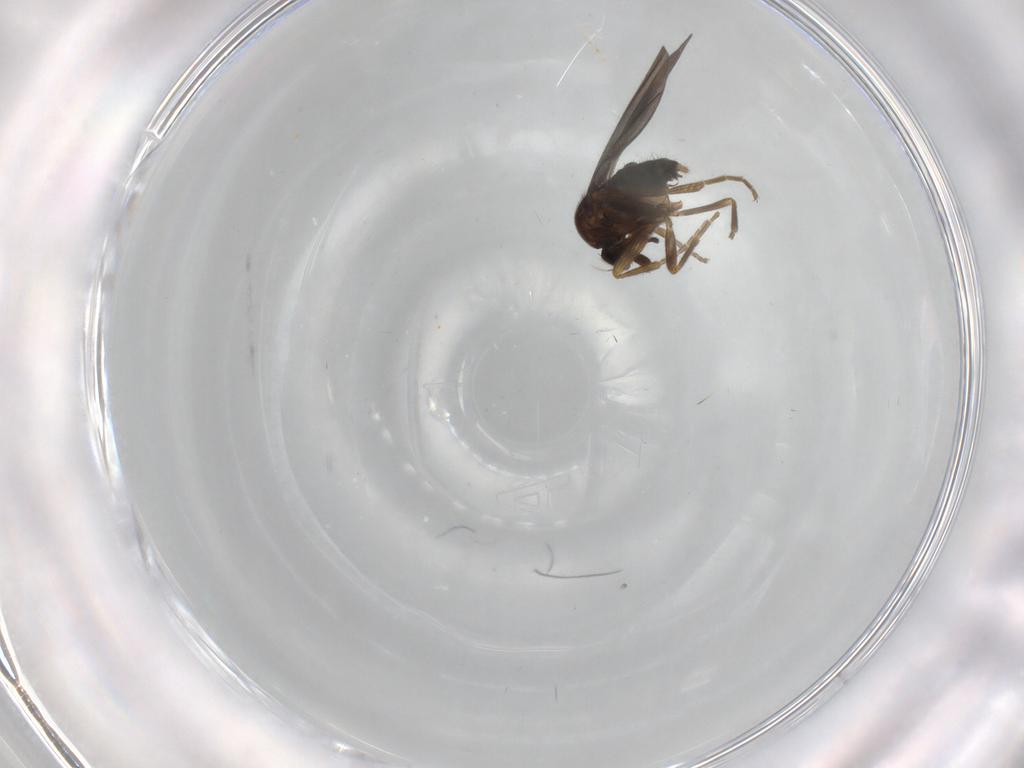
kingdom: Animalia
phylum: Arthropoda
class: Insecta
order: Diptera
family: Phoridae
